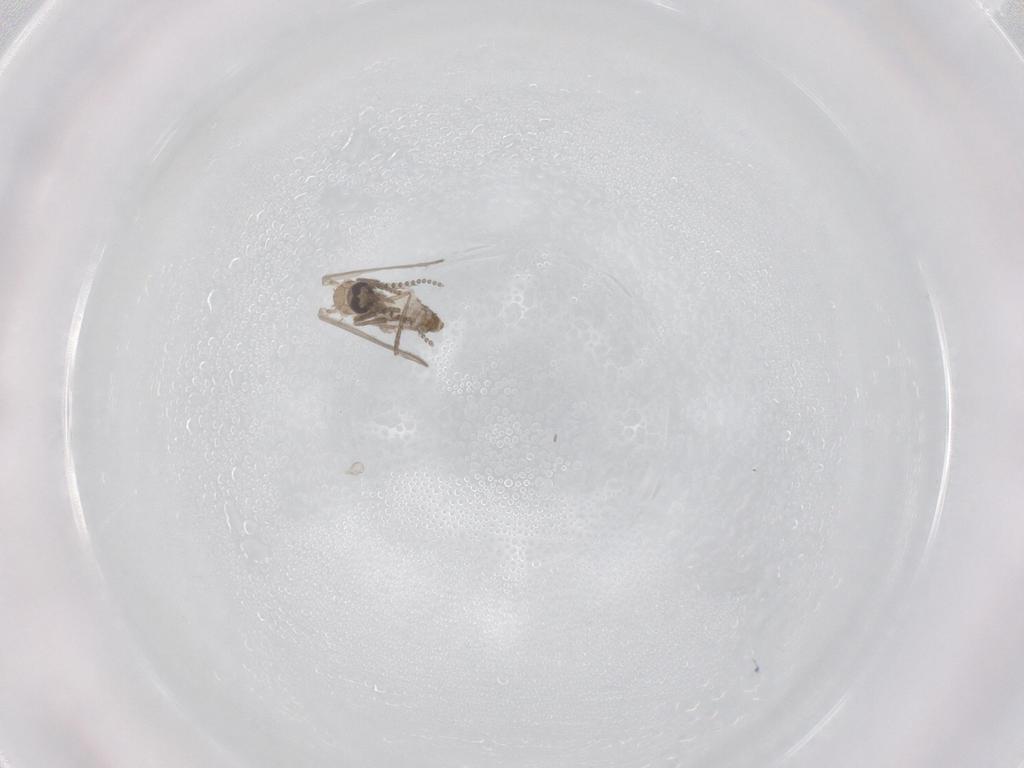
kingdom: Animalia
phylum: Arthropoda
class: Insecta
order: Diptera
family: Psychodidae
